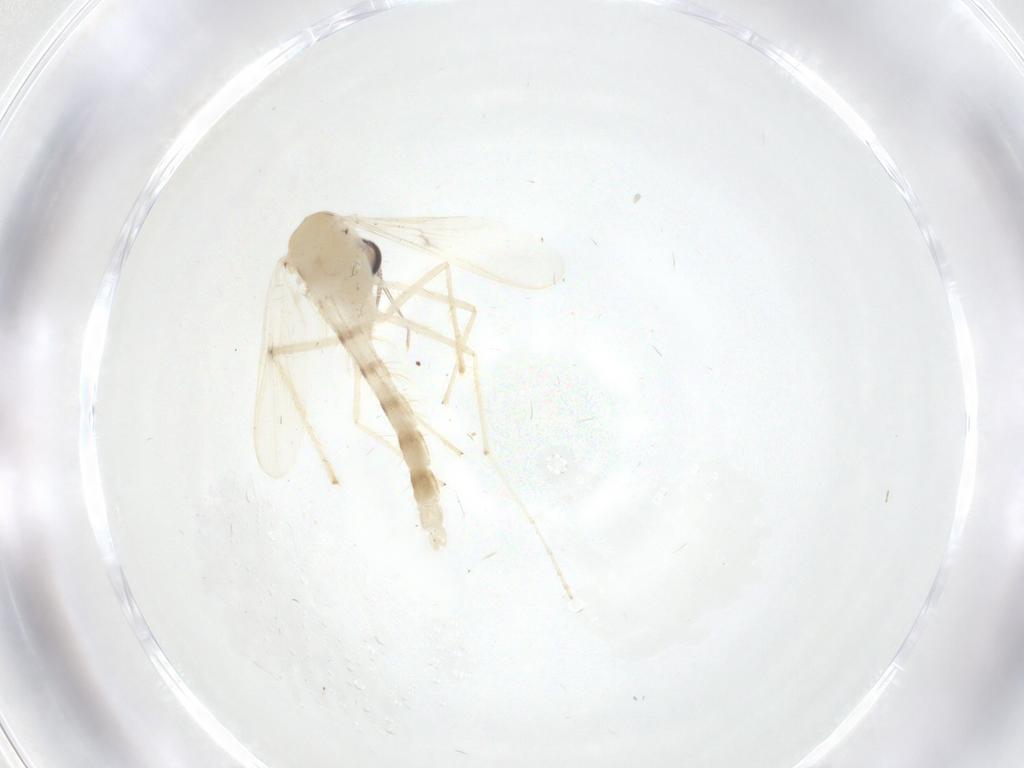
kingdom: Animalia
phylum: Arthropoda
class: Insecta
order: Diptera
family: Chironomidae
